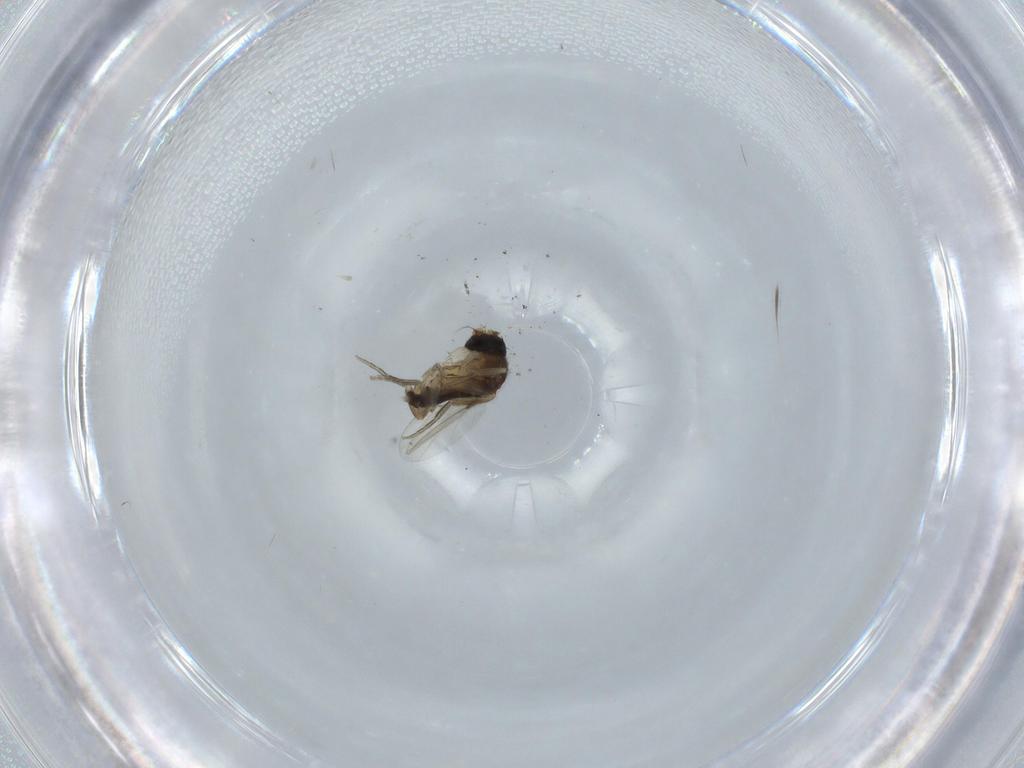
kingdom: Animalia
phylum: Arthropoda
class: Insecta
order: Diptera
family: Phoridae
